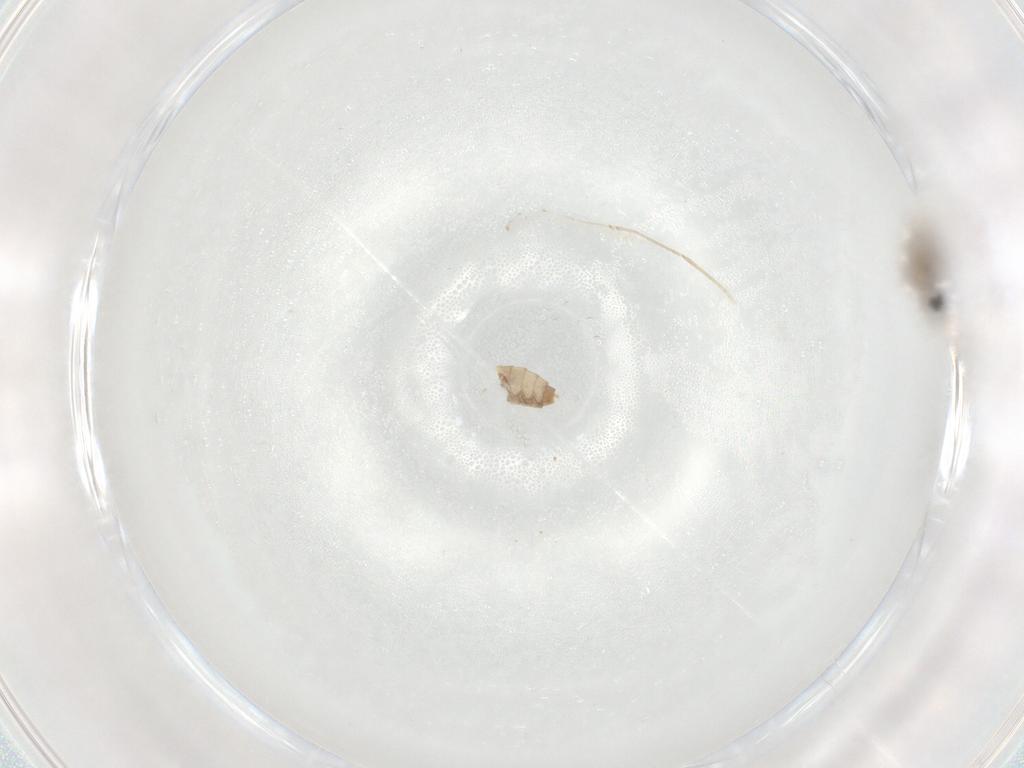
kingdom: Animalia
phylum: Arthropoda
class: Insecta
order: Diptera
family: Cecidomyiidae
